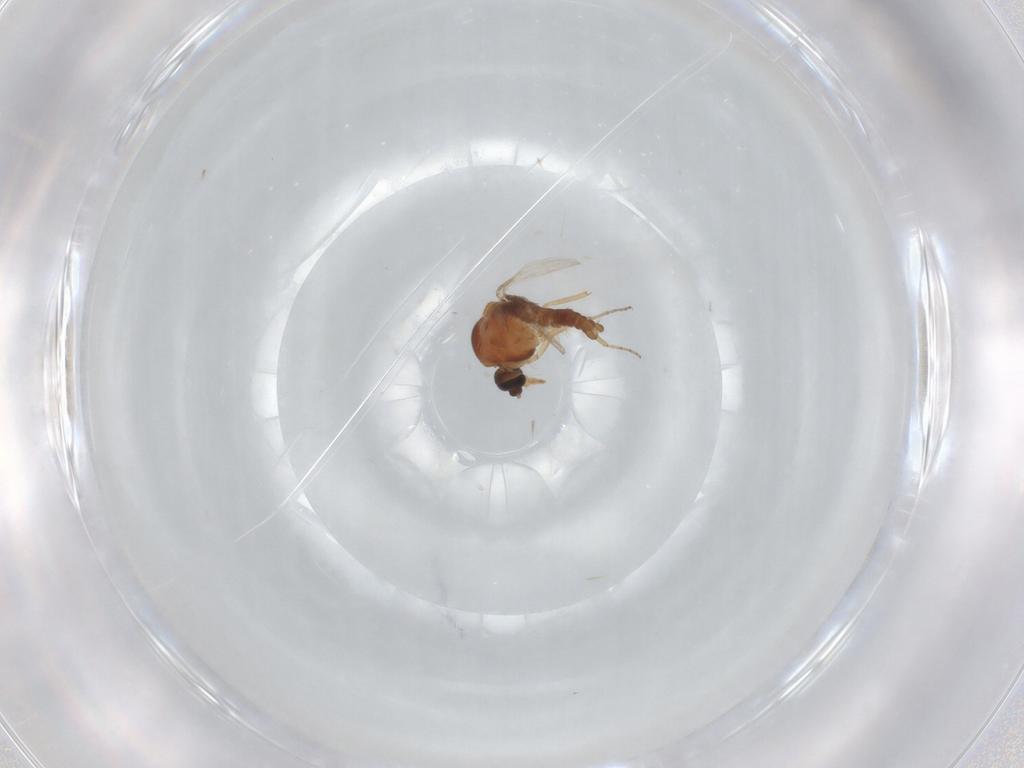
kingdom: Animalia
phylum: Arthropoda
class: Insecta
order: Diptera
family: Ceratopogonidae
